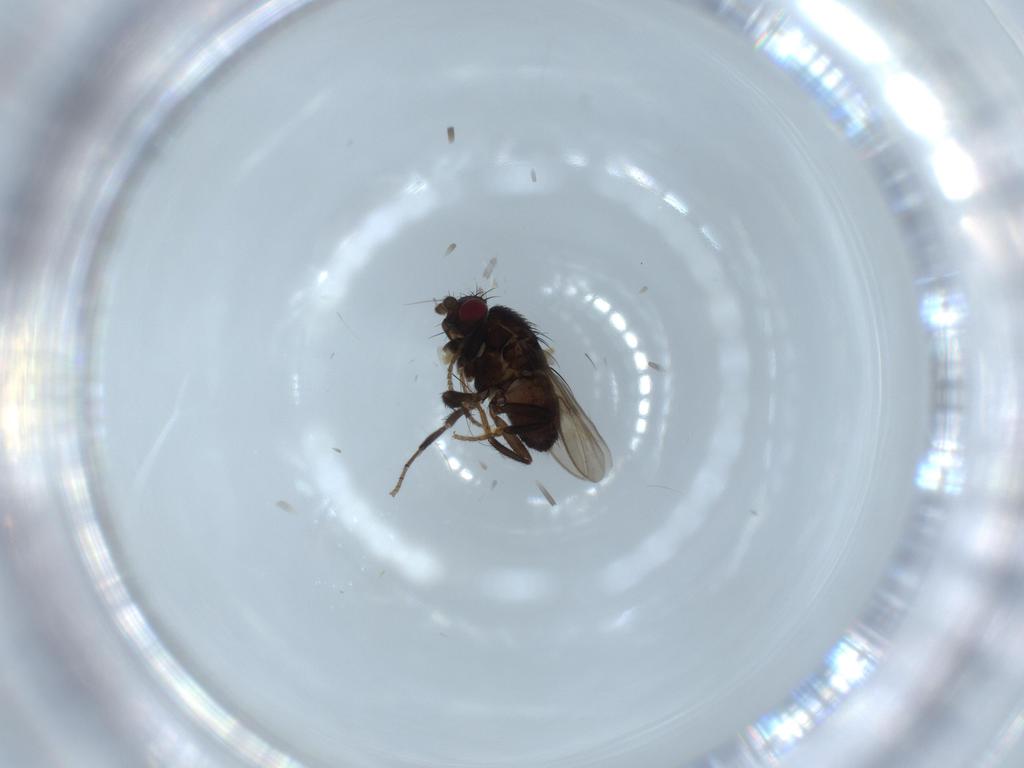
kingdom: Animalia
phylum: Arthropoda
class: Insecta
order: Diptera
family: Sphaeroceridae
